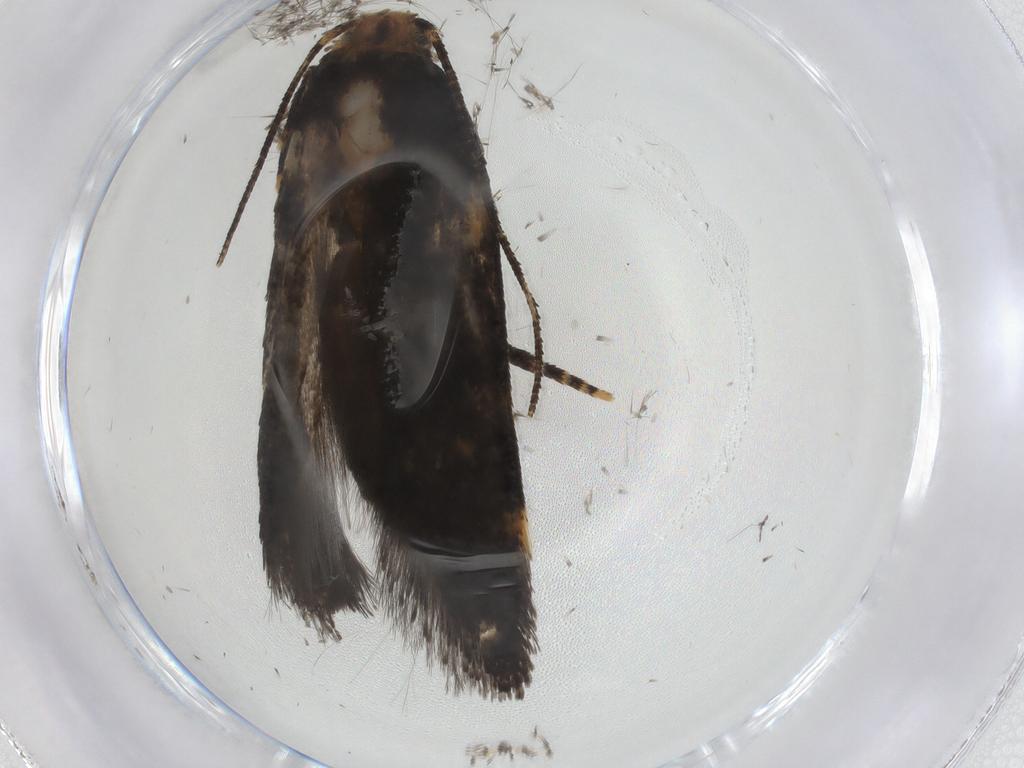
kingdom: Animalia
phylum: Arthropoda
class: Insecta
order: Lepidoptera
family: Gelechiidae
